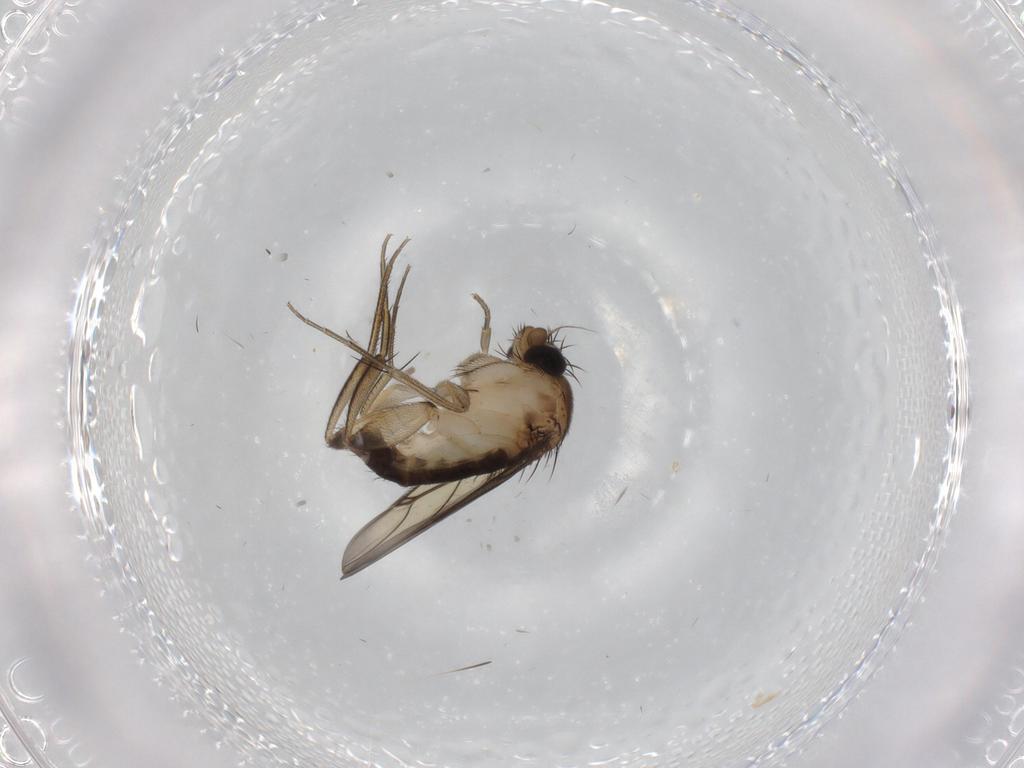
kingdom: Animalia
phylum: Arthropoda
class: Insecta
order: Diptera
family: Phoridae
